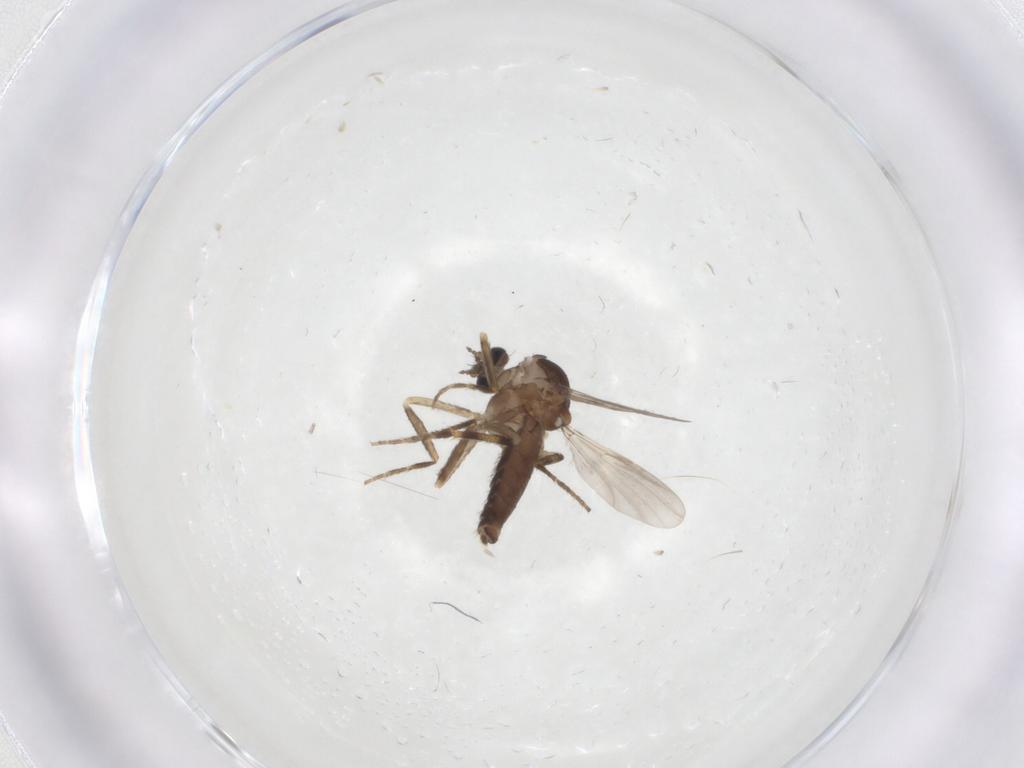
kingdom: Animalia
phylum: Arthropoda
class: Insecta
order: Diptera
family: Ceratopogonidae
